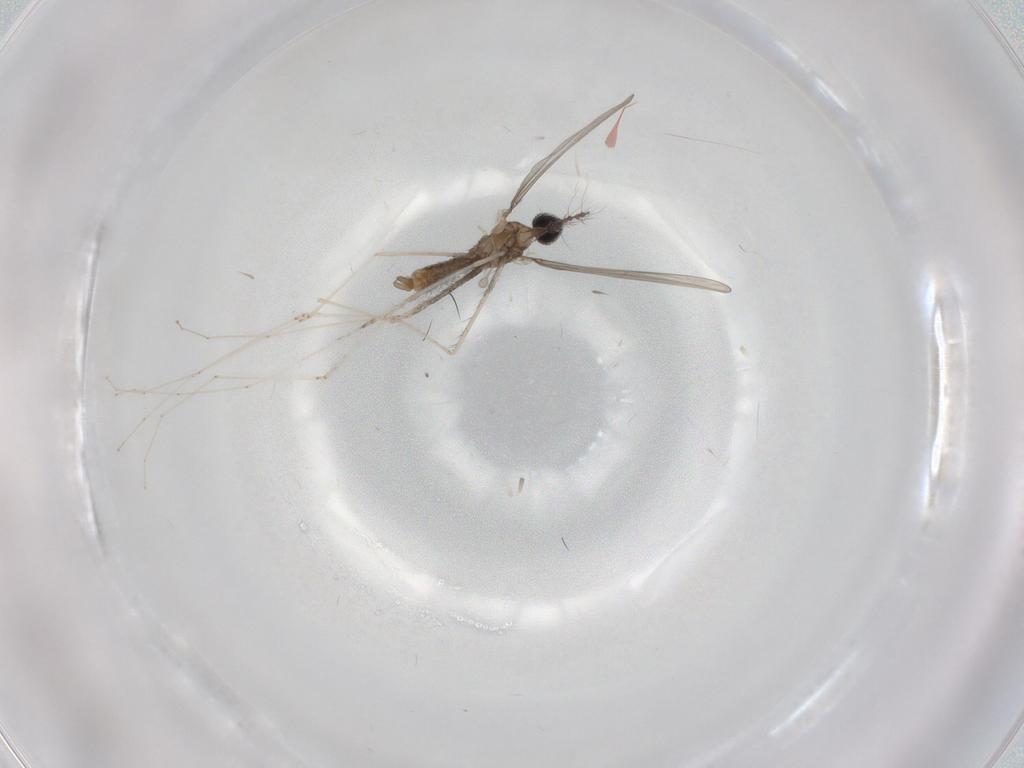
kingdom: Animalia
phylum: Arthropoda
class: Insecta
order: Diptera
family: Cecidomyiidae
